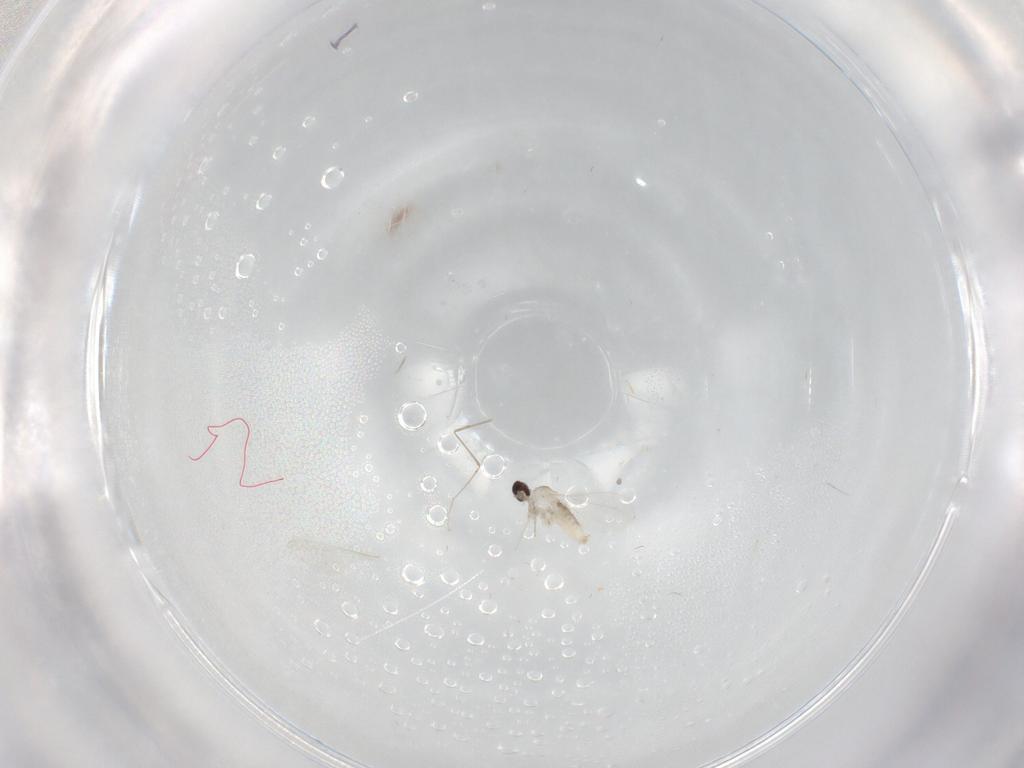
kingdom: Animalia
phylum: Arthropoda
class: Insecta
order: Diptera
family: Cecidomyiidae
